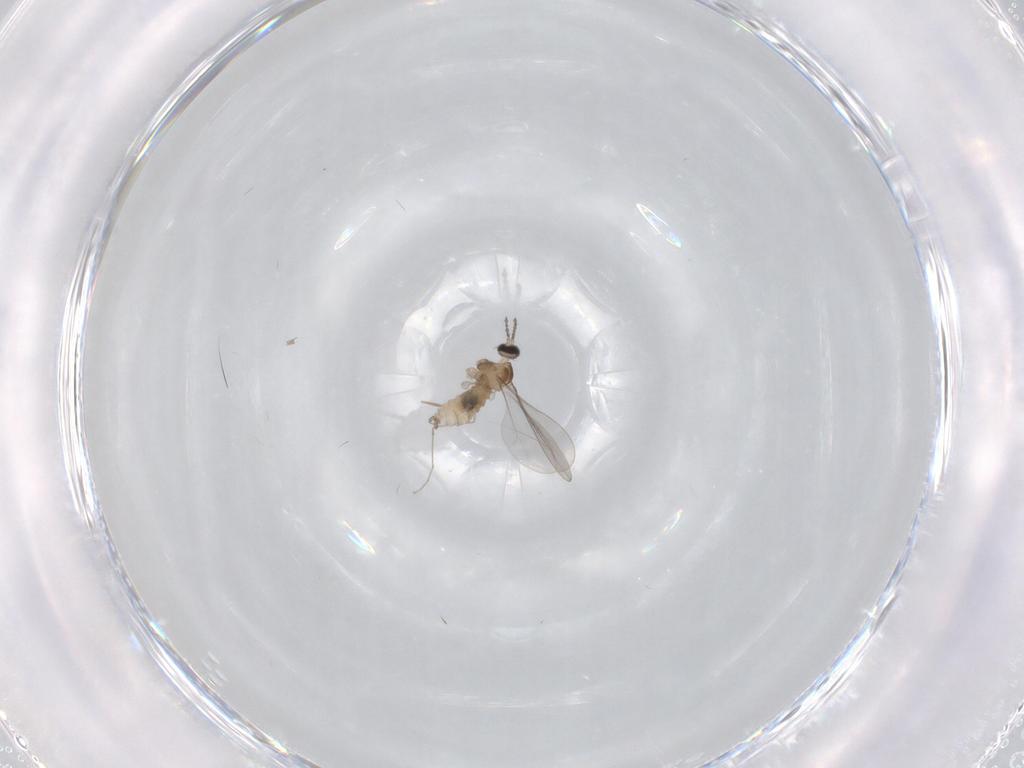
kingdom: Animalia
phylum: Arthropoda
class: Insecta
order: Diptera
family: Cecidomyiidae
